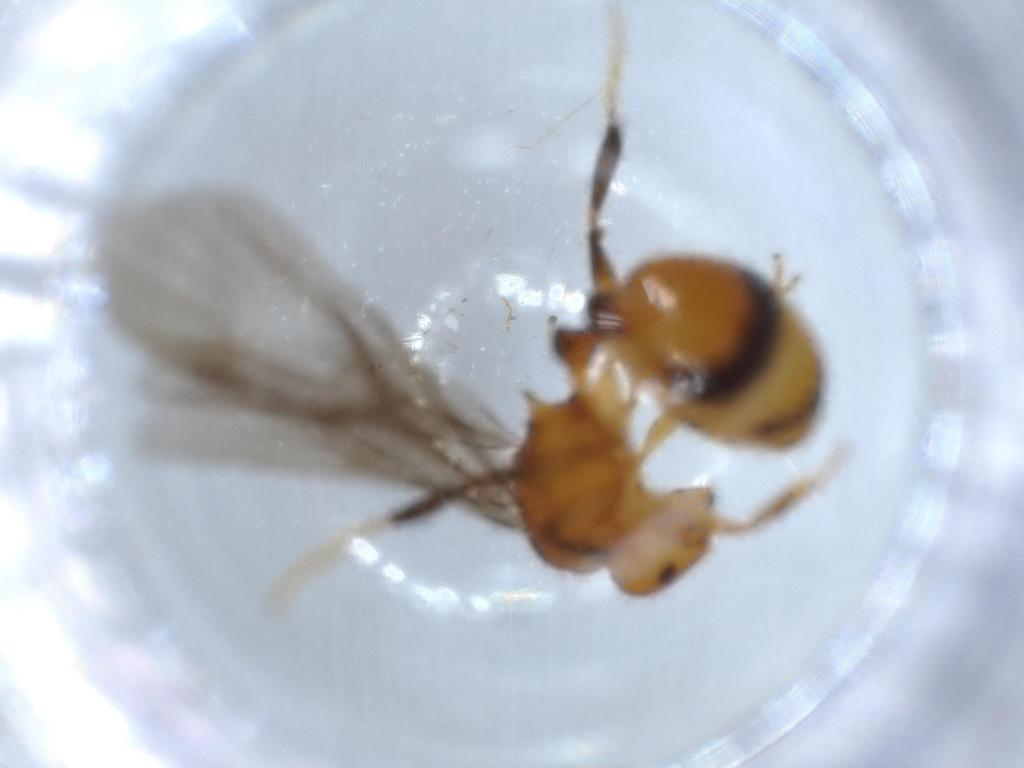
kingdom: Animalia
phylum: Arthropoda
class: Insecta
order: Hymenoptera
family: Formicidae
